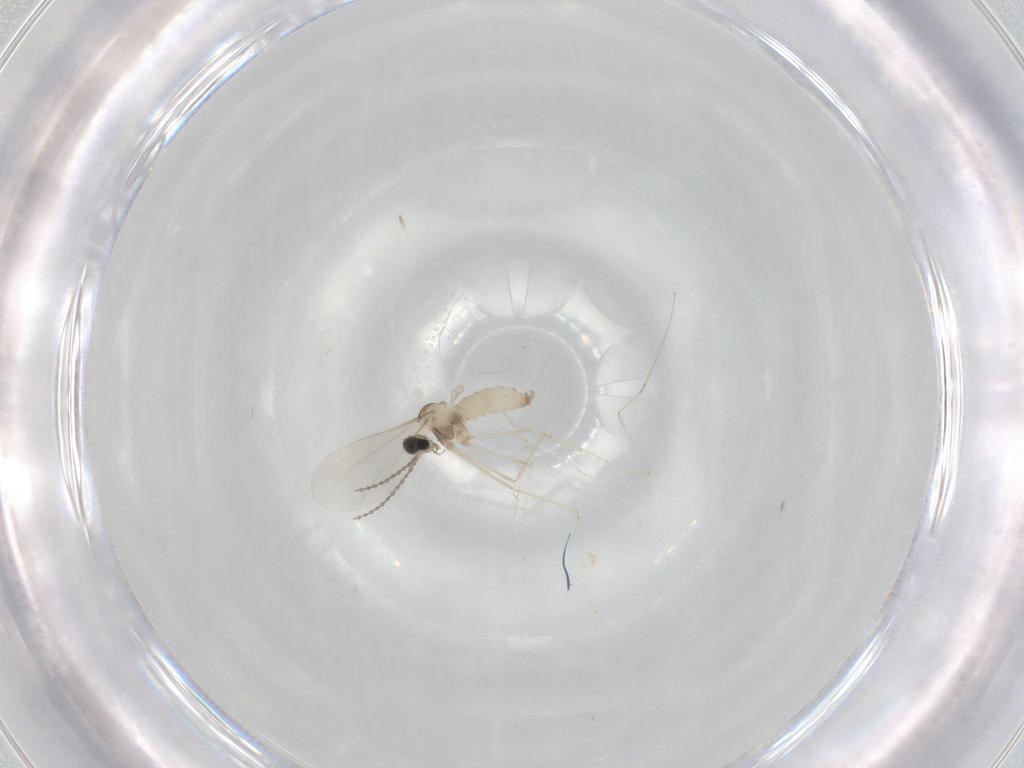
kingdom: Animalia
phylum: Arthropoda
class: Insecta
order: Diptera
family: Cecidomyiidae
